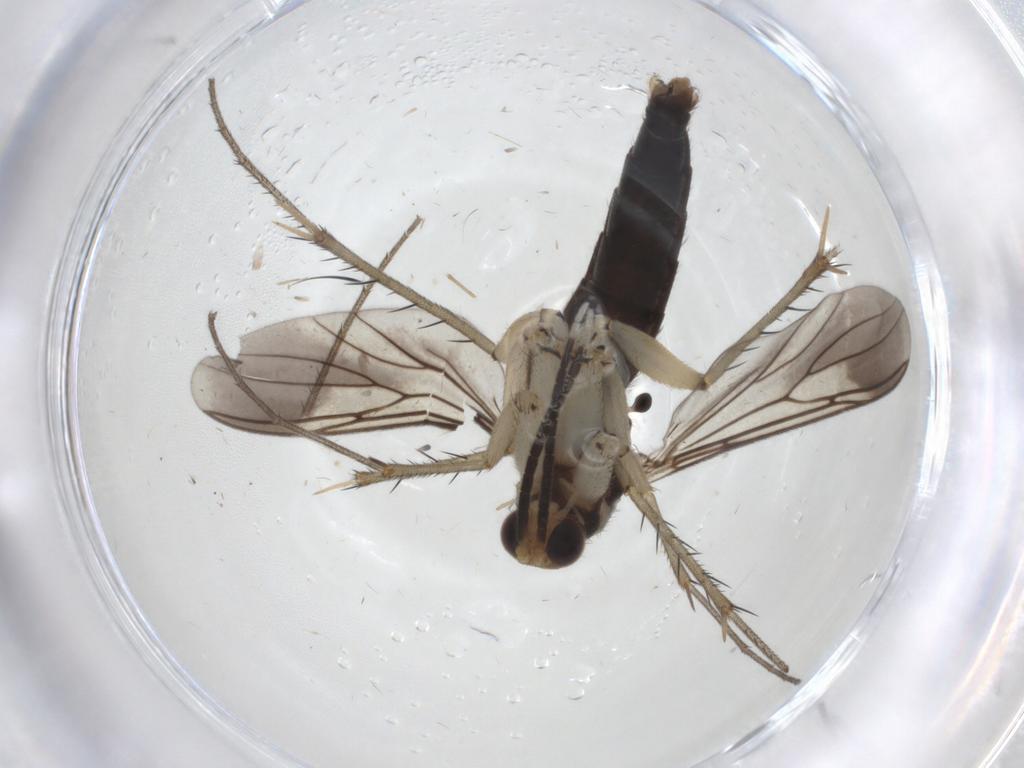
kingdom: Animalia
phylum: Arthropoda
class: Insecta
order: Diptera
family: Mycetophilidae
